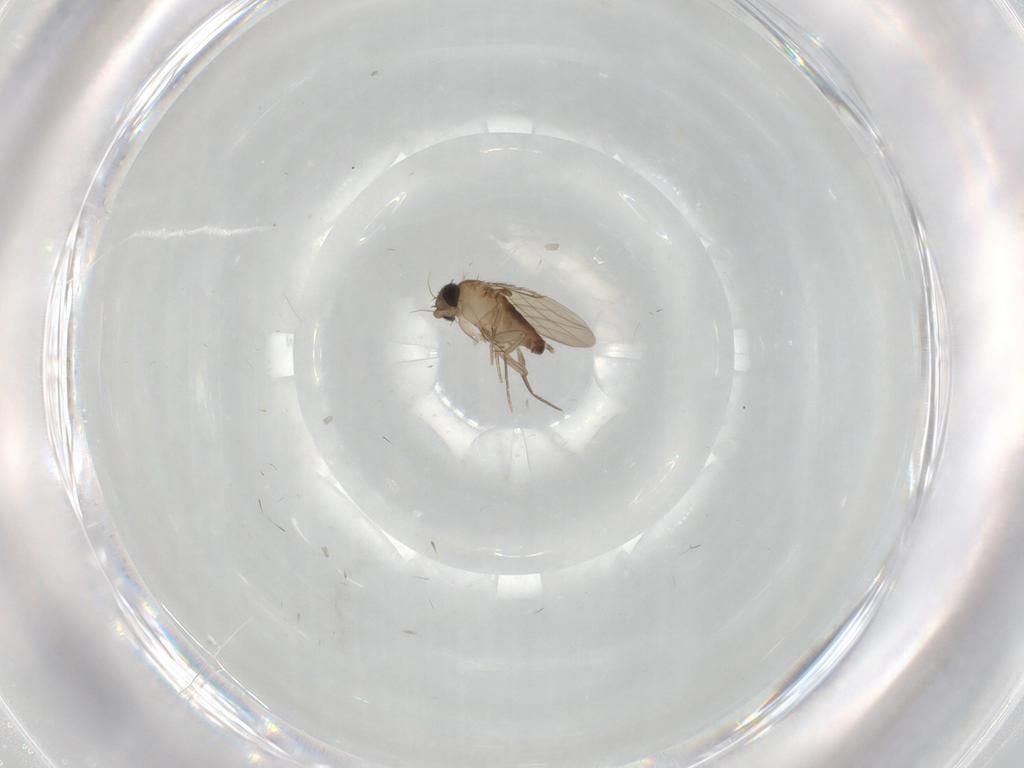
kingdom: Animalia
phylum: Arthropoda
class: Insecta
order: Diptera
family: Phoridae
